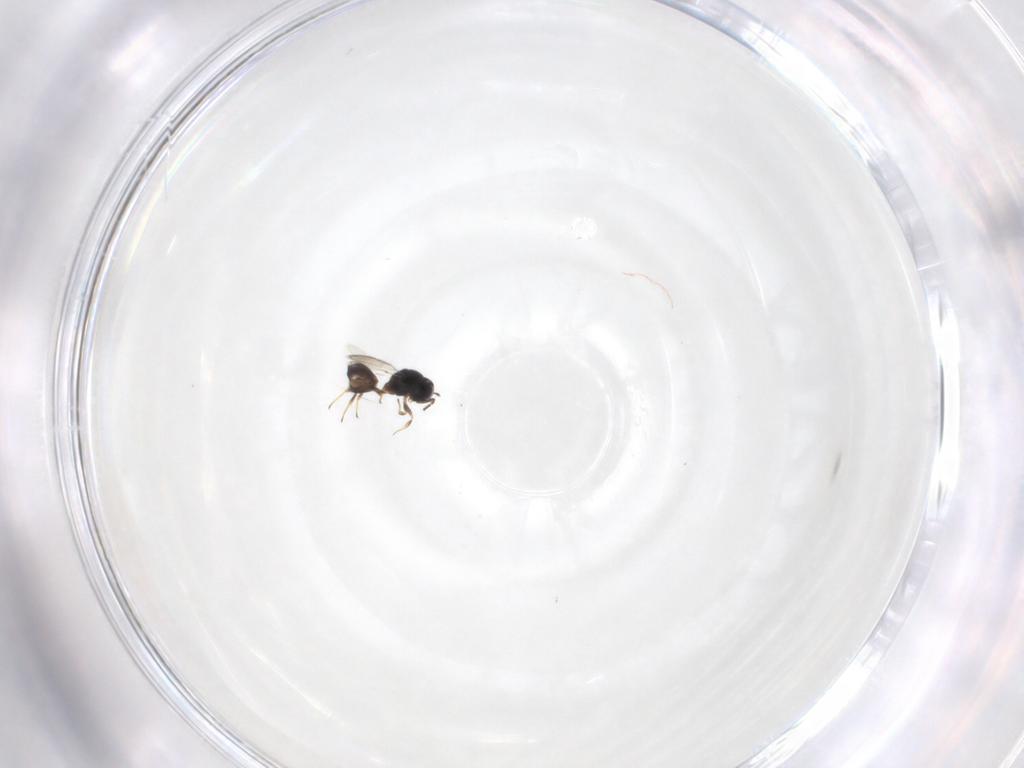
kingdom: Animalia
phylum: Arthropoda
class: Insecta
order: Hymenoptera
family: Scelionidae
